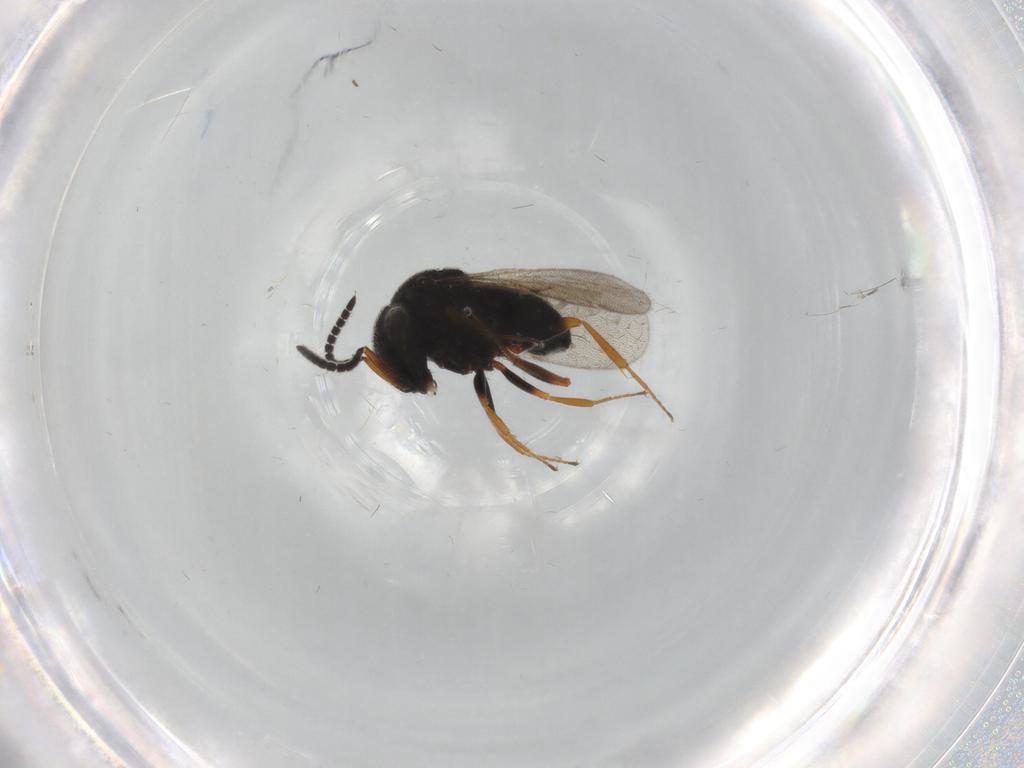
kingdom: Animalia
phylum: Arthropoda
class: Insecta
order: Hymenoptera
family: Scelionidae
